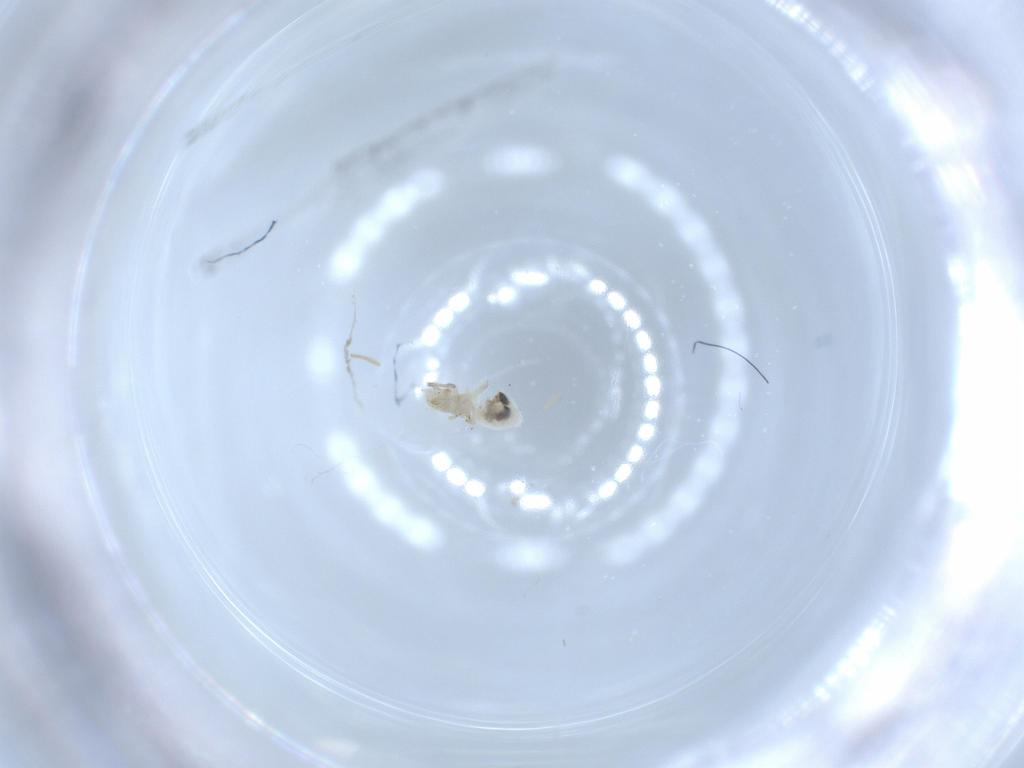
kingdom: Animalia
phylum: Arthropoda
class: Insecta
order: Psocodea
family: Caeciliusidae
